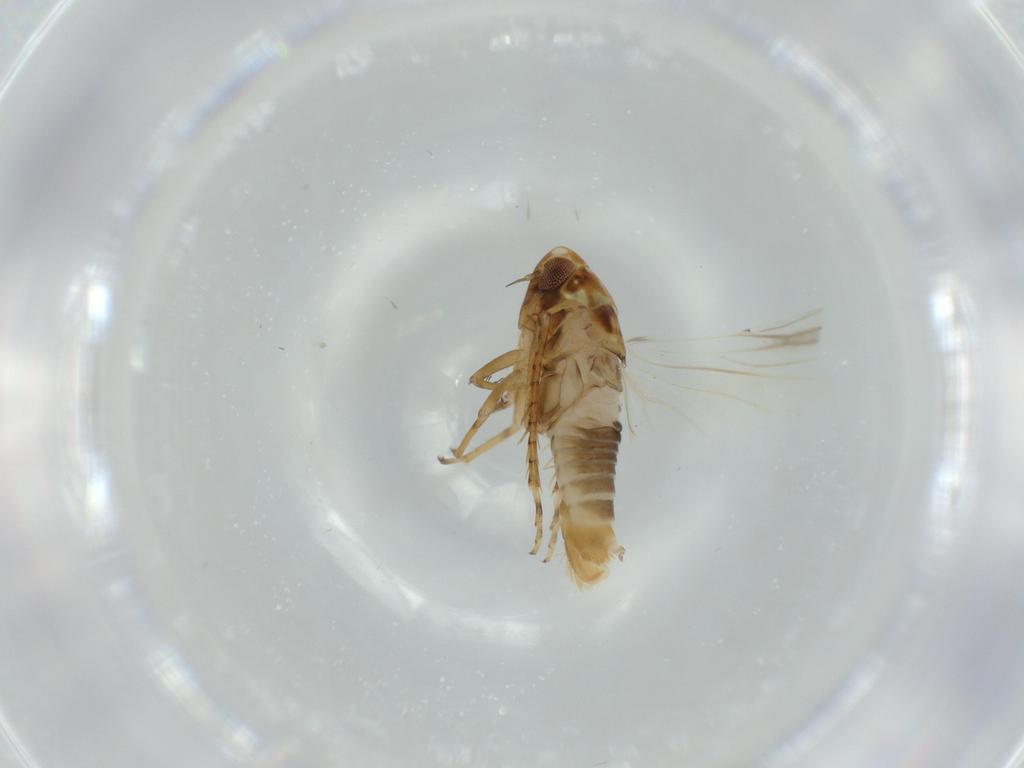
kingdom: Animalia
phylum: Arthropoda
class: Insecta
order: Hemiptera
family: Cicadellidae
